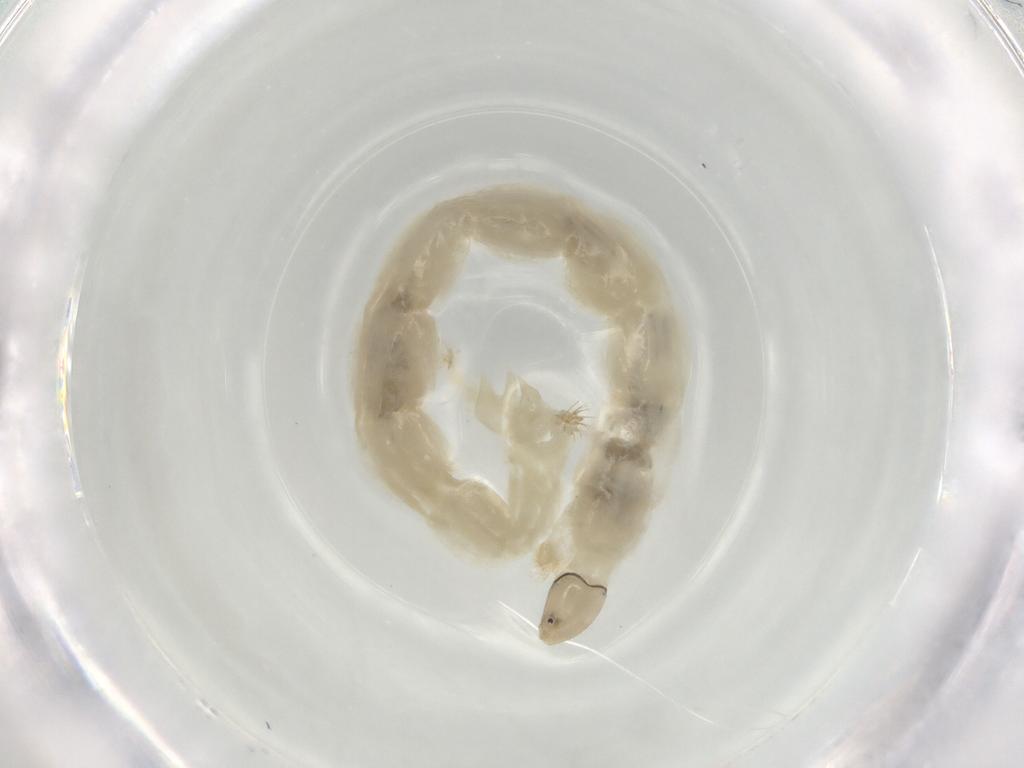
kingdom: Animalia
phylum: Arthropoda
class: Insecta
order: Diptera
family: Chironomidae
